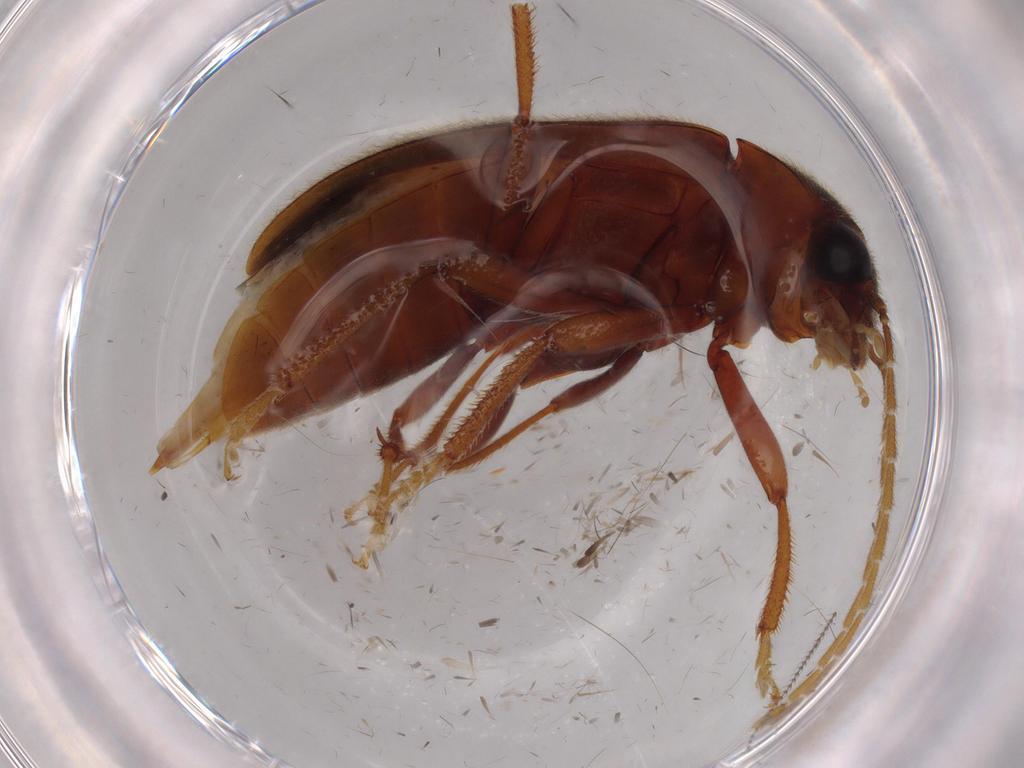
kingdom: Animalia
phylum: Arthropoda
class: Insecta
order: Coleoptera
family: Ptilodactylidae
